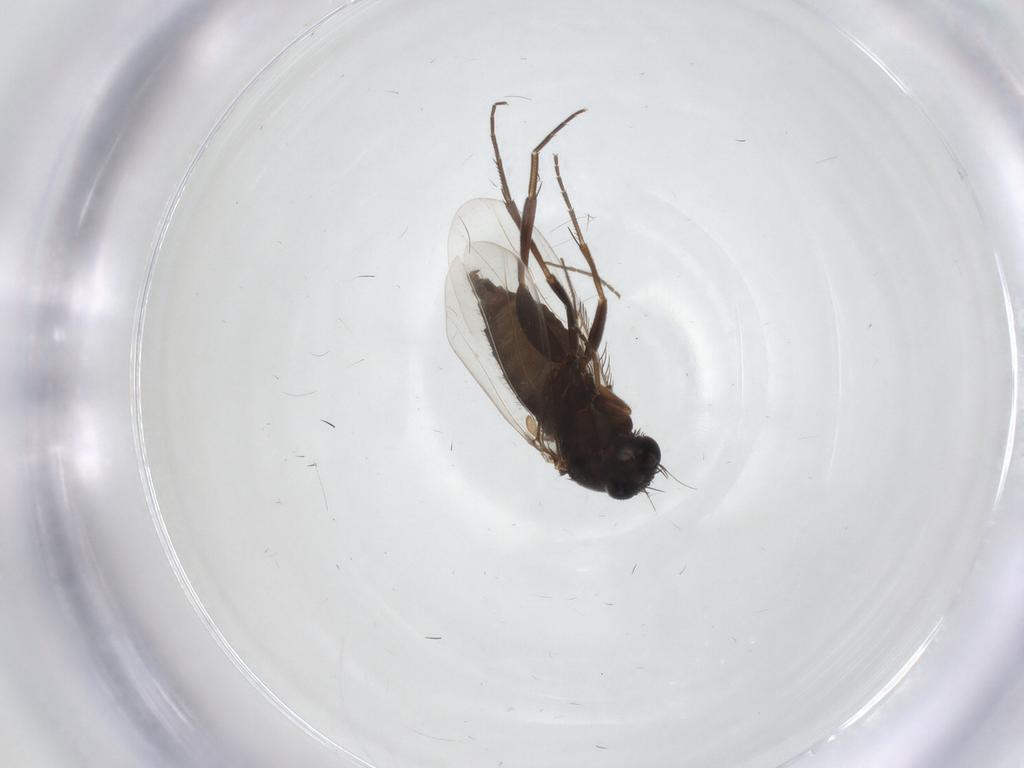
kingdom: Animalia
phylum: Arthropoda
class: Insecta
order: Diptera
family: Phoridae
